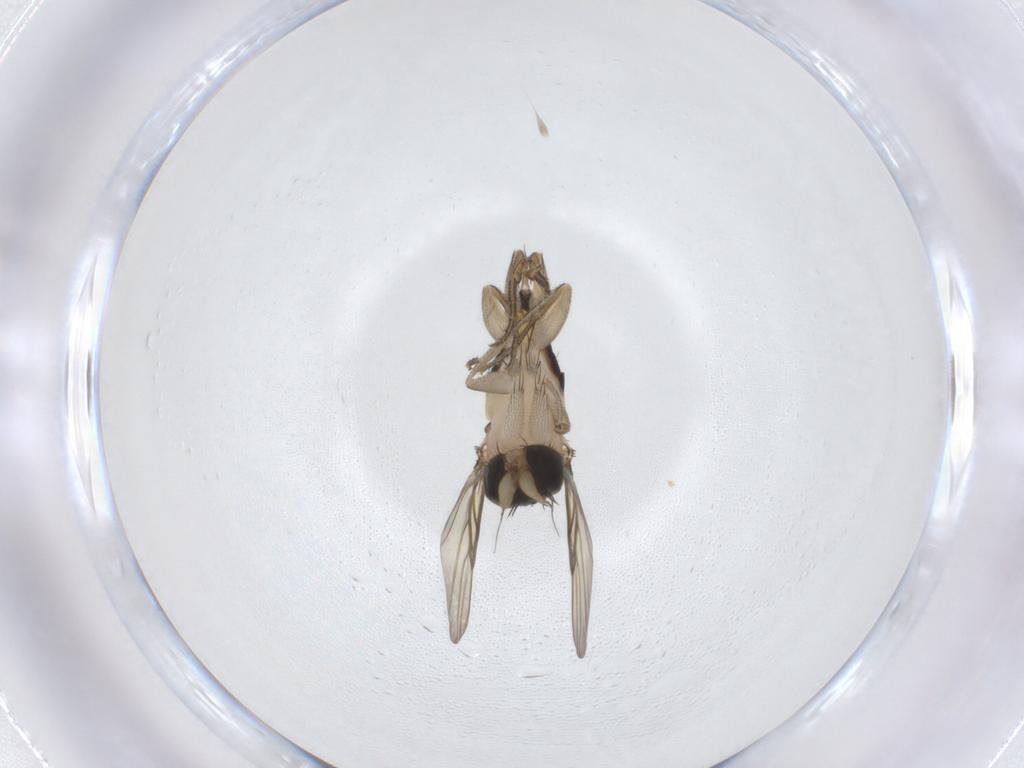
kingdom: Animalia
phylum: Arthropoda
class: Insecta
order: Diptera
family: Phoridae
